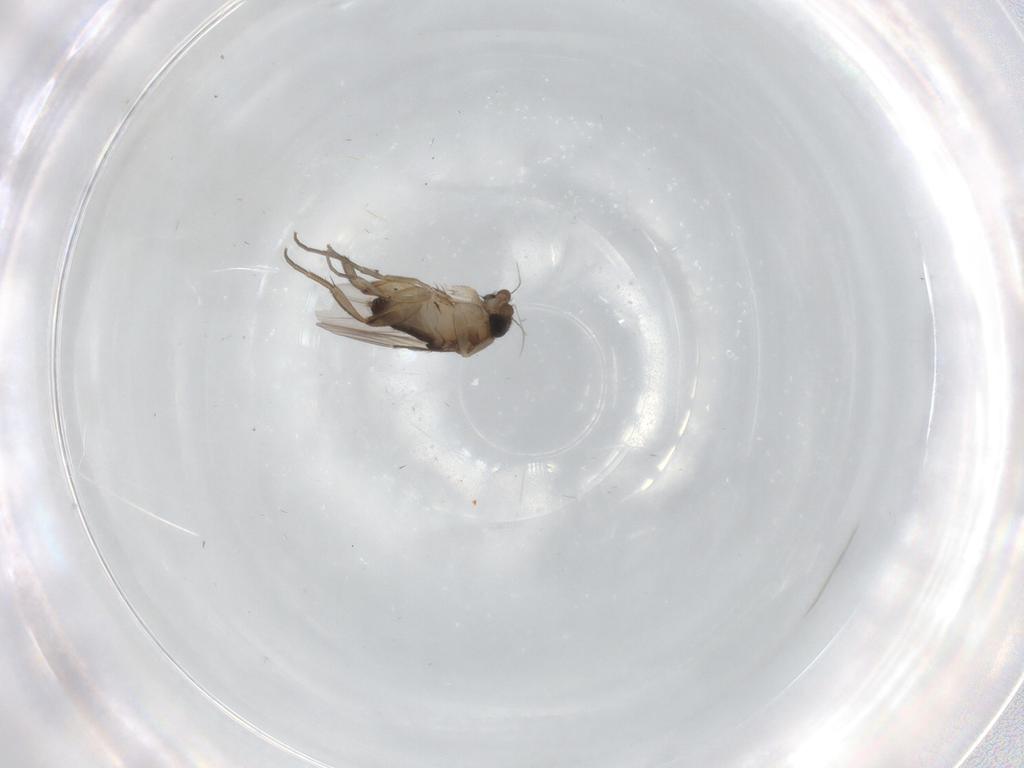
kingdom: Animalia
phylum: Arthropoda
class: Insecta
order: Diptera
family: Phoridae
